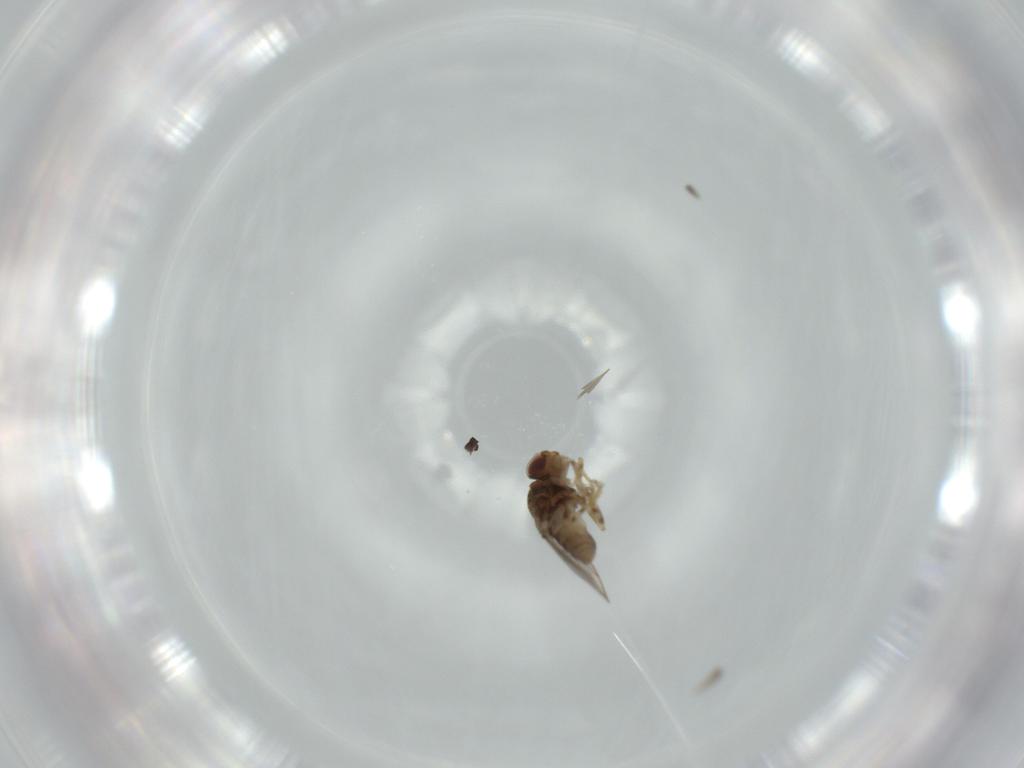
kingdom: Animalia
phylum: Arthropoda
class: Insecta
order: Diptera
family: Chloropidae
